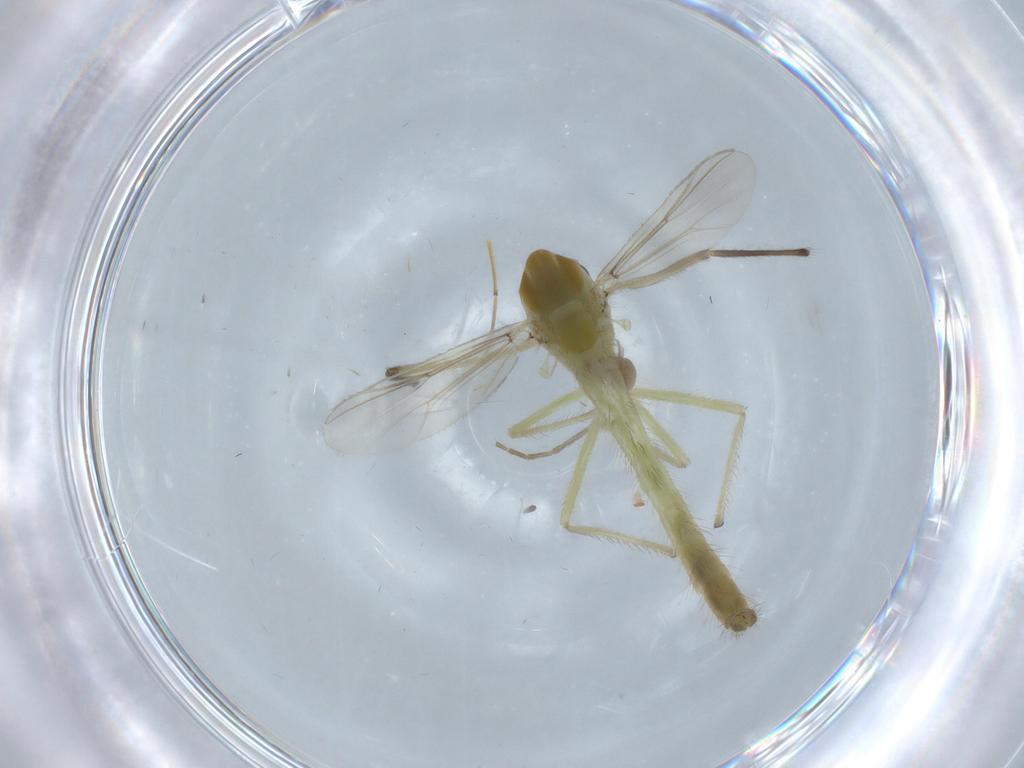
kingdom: Animalia
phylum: Arthropoda
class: Insecta
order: Diptera
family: Chironomidae
